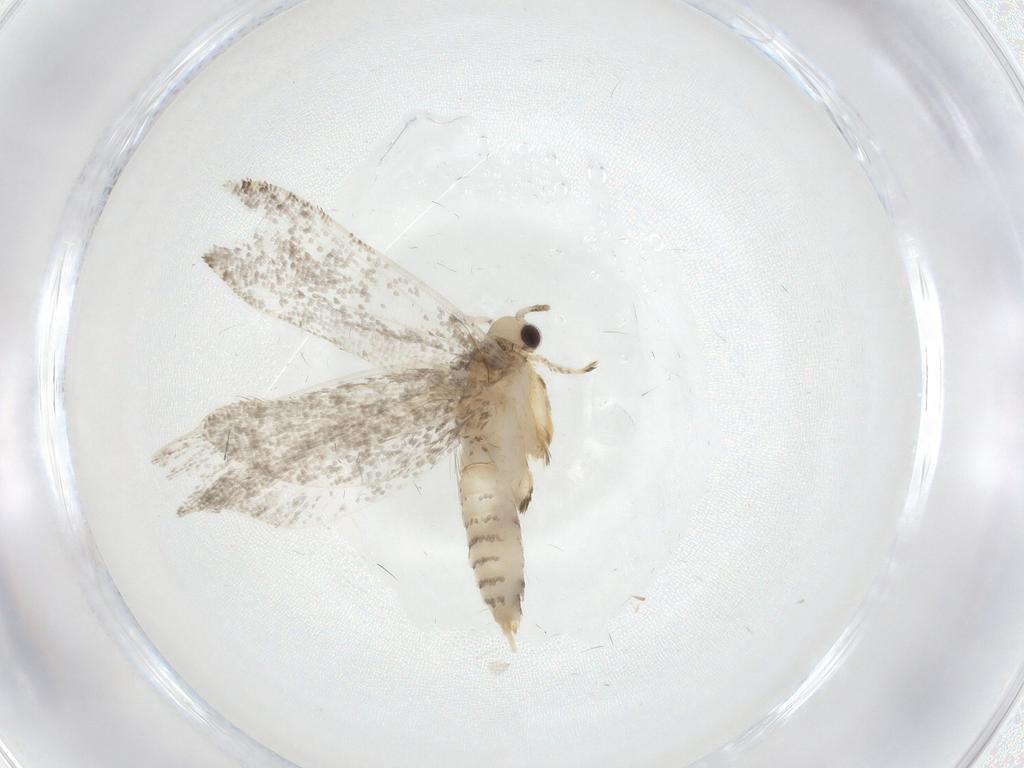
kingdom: Animalia
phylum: Arthropoda
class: Insecta
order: Lepidoptera
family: Tineidae
